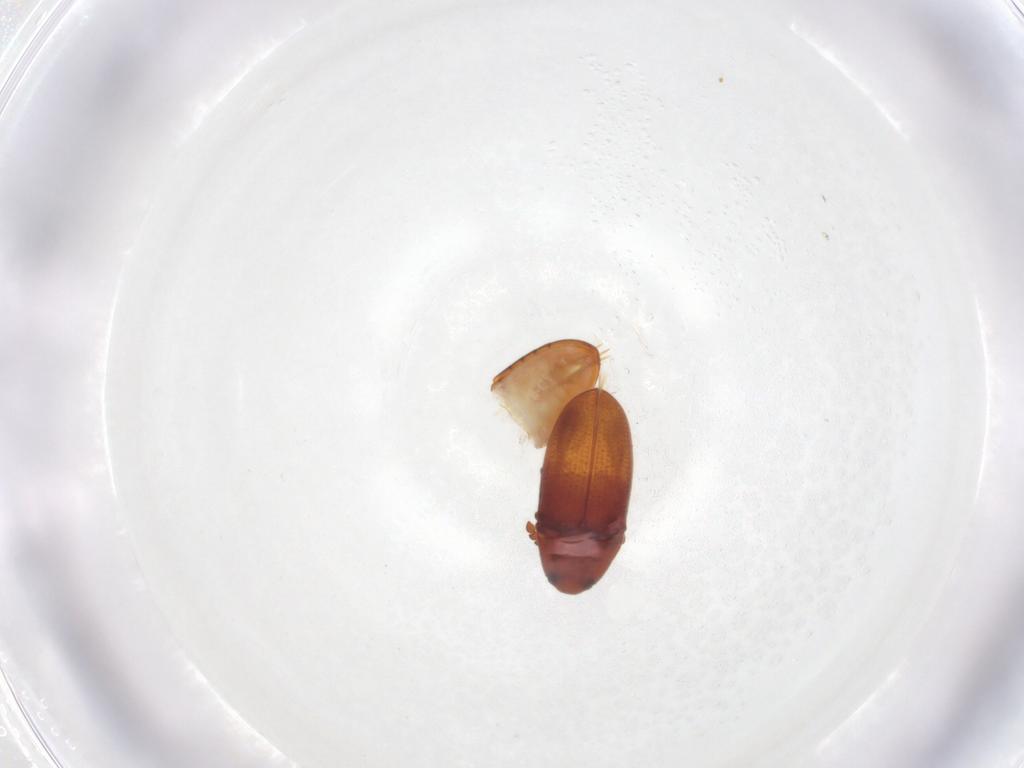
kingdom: Animalia
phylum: Arthropoda
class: Insecta
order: Coleoptera
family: Throscidae
